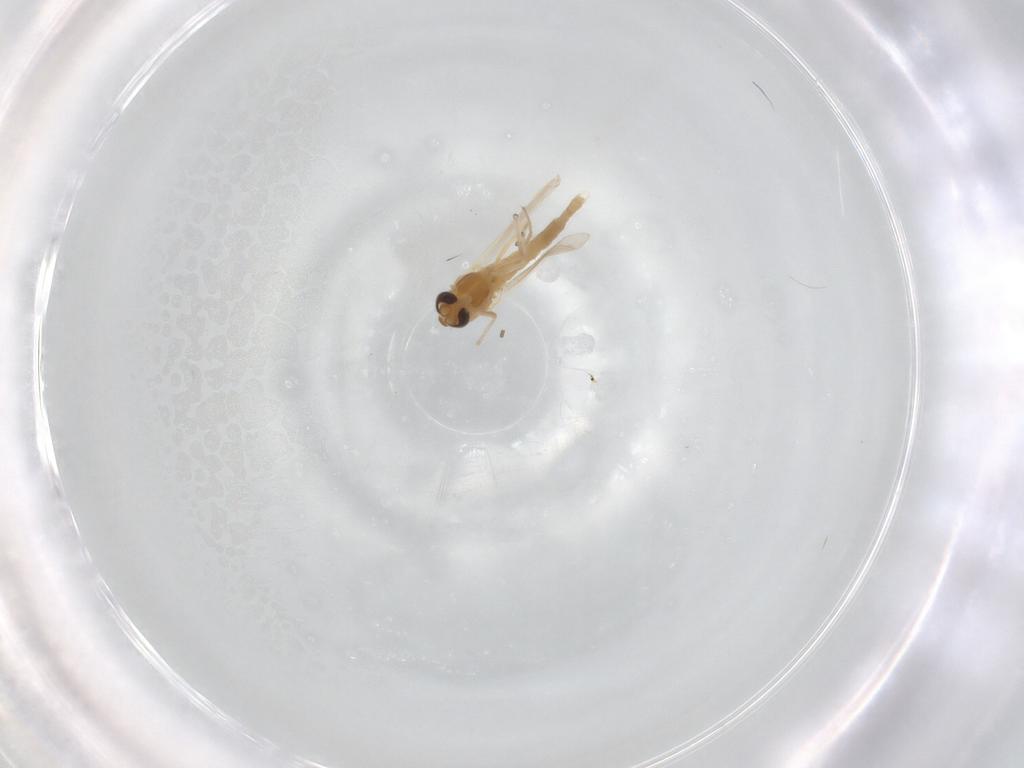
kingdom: Animalia
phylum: Arthropoda
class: Insecta
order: Diptera
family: Chironomidae
